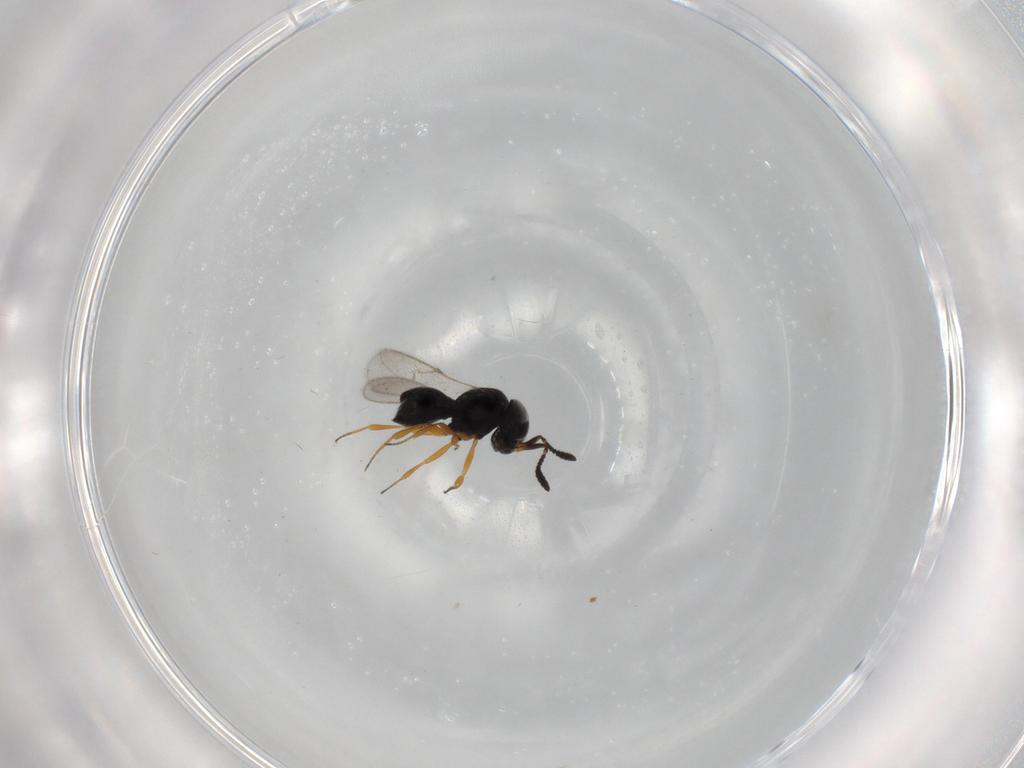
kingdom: Animalia
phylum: Arthropoda
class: Insecta
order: Hymenoptera
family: Scelionidae
